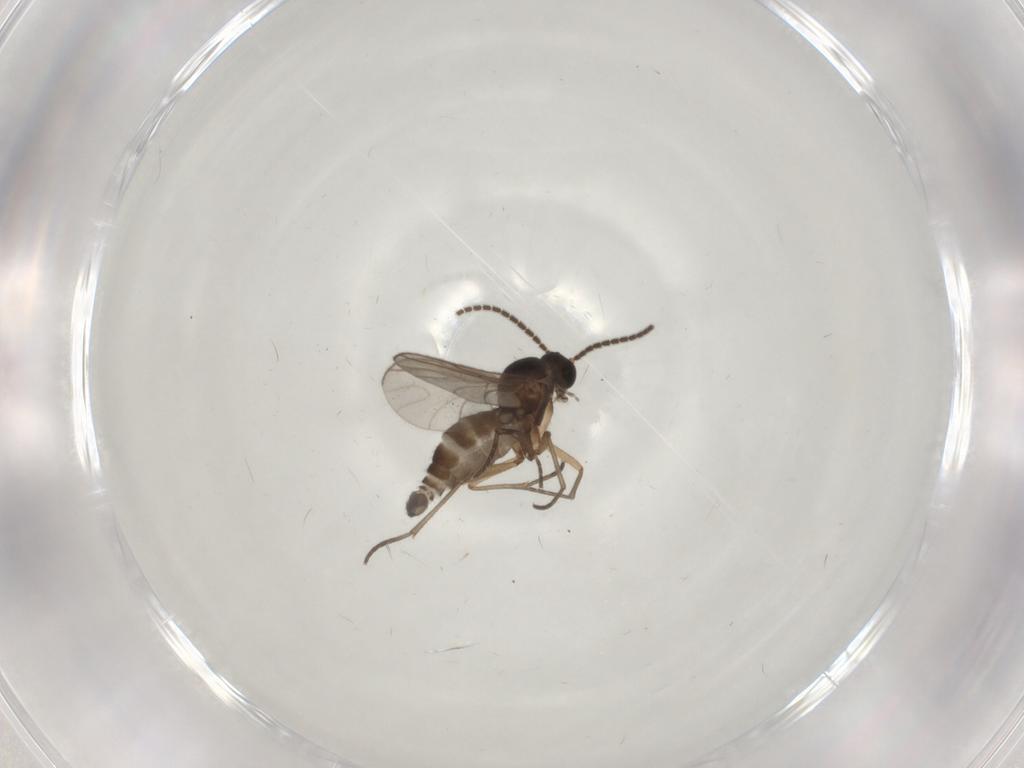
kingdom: Animalia
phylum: Arthropoda
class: Insecta
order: Diptera
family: Sciaridae
